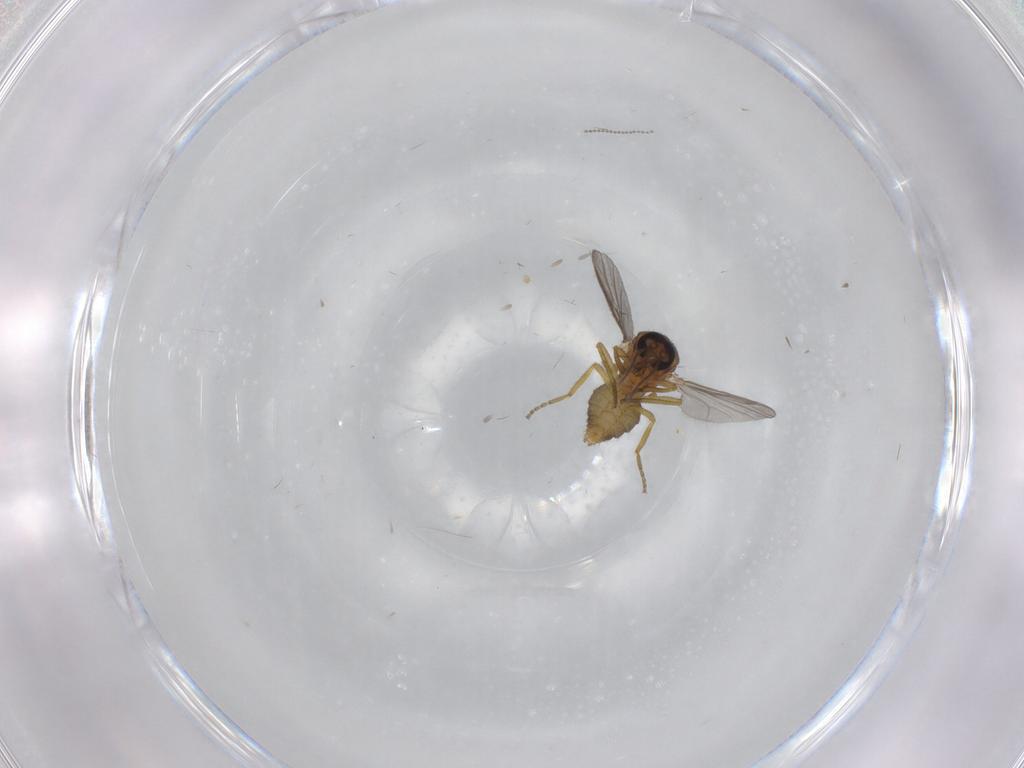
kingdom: Animalia
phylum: Arthropoda
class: Insecta
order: Diptera
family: Ceratopogonidae
